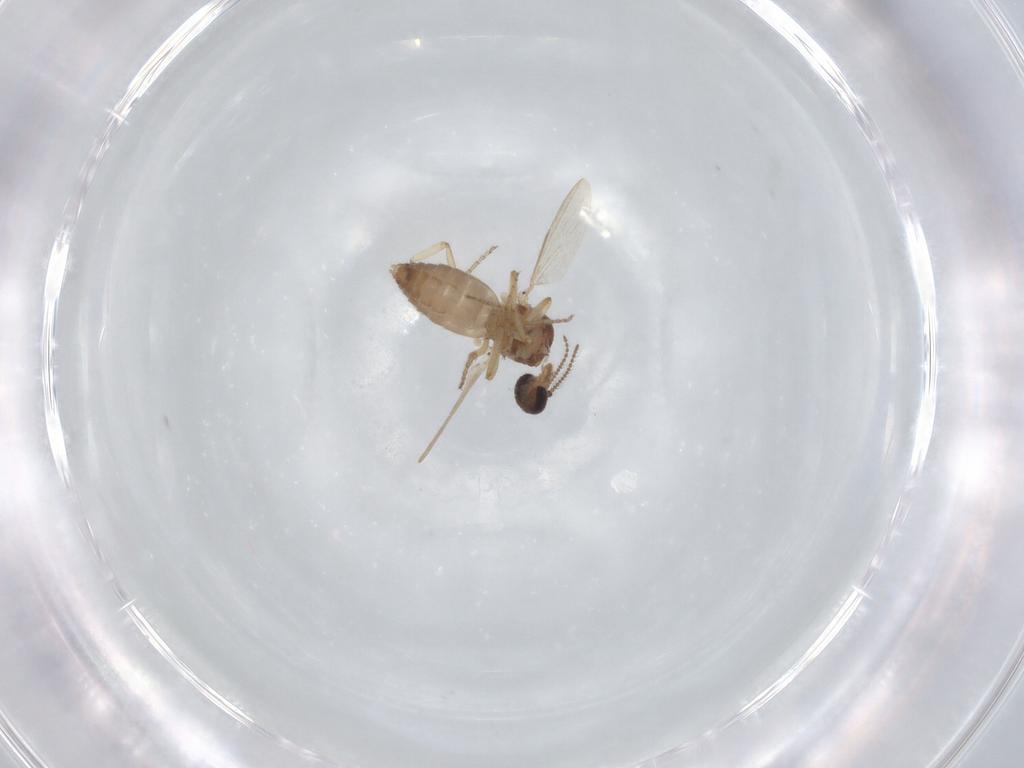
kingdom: Animalia
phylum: Arthropoda
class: Insecta
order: Diptera
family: Ceratopogonidae
